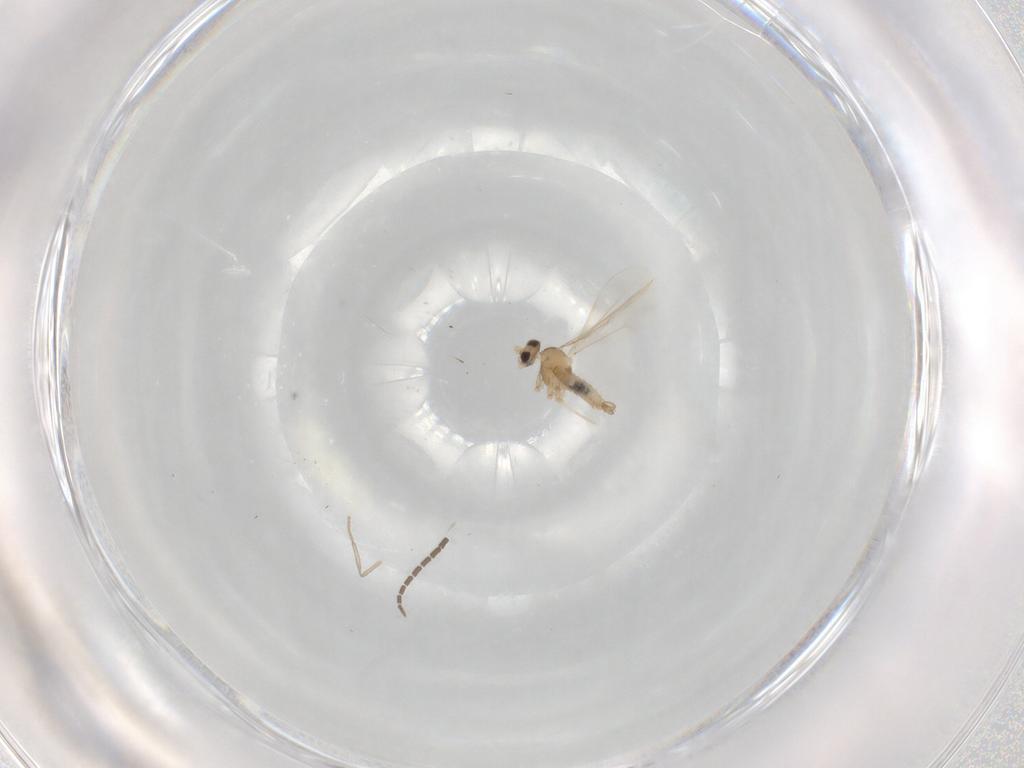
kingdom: Animalia
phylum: Arthropoda
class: Insecta
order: Diptera
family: Sciaridae
